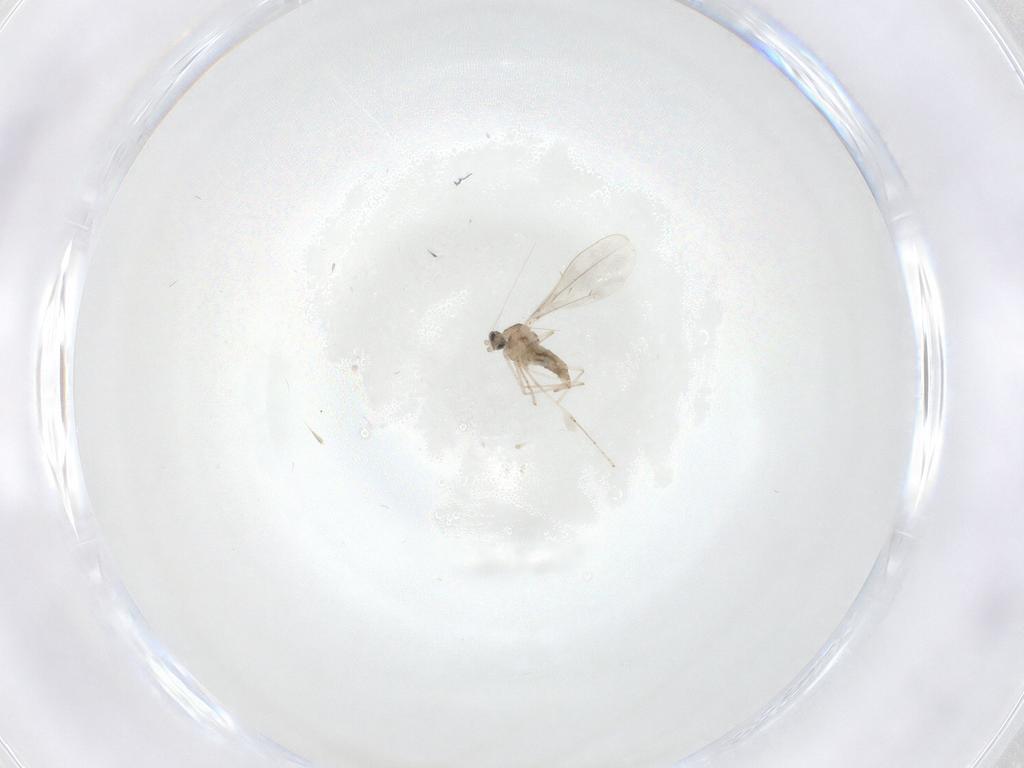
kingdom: Animalia
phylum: Arthropoda
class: Insecta
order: Diptera
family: Cecidomyiidae
